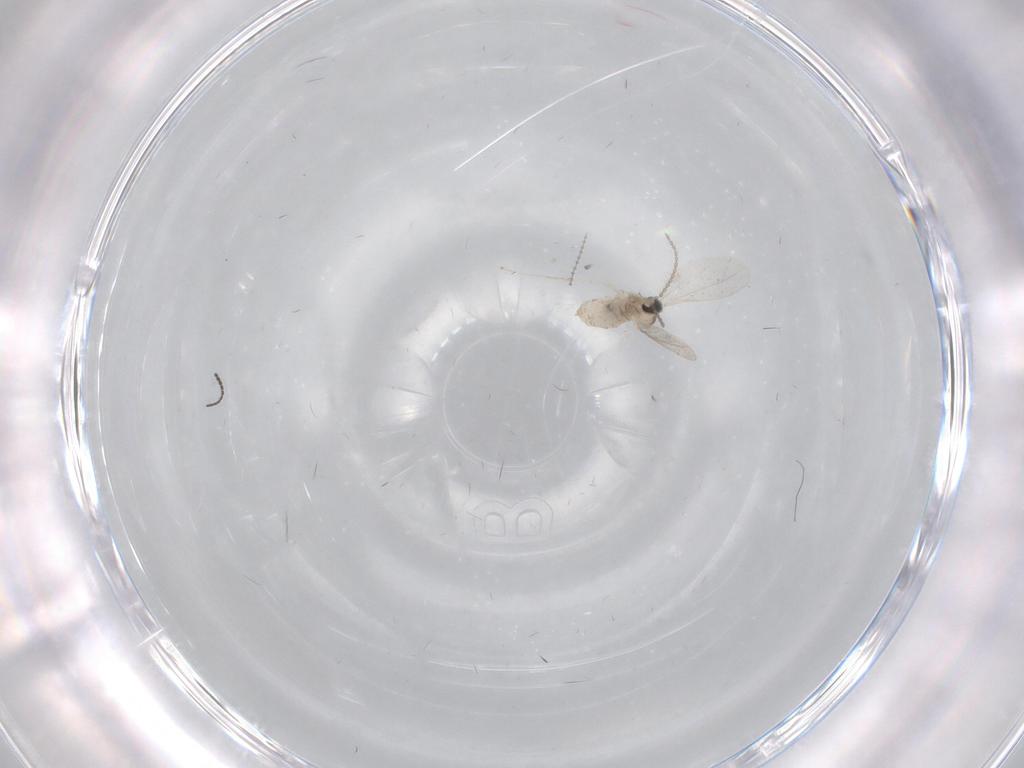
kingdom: Animalia
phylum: Arthropoda
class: Insecta
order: Diptera
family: Cecidomyiidae
